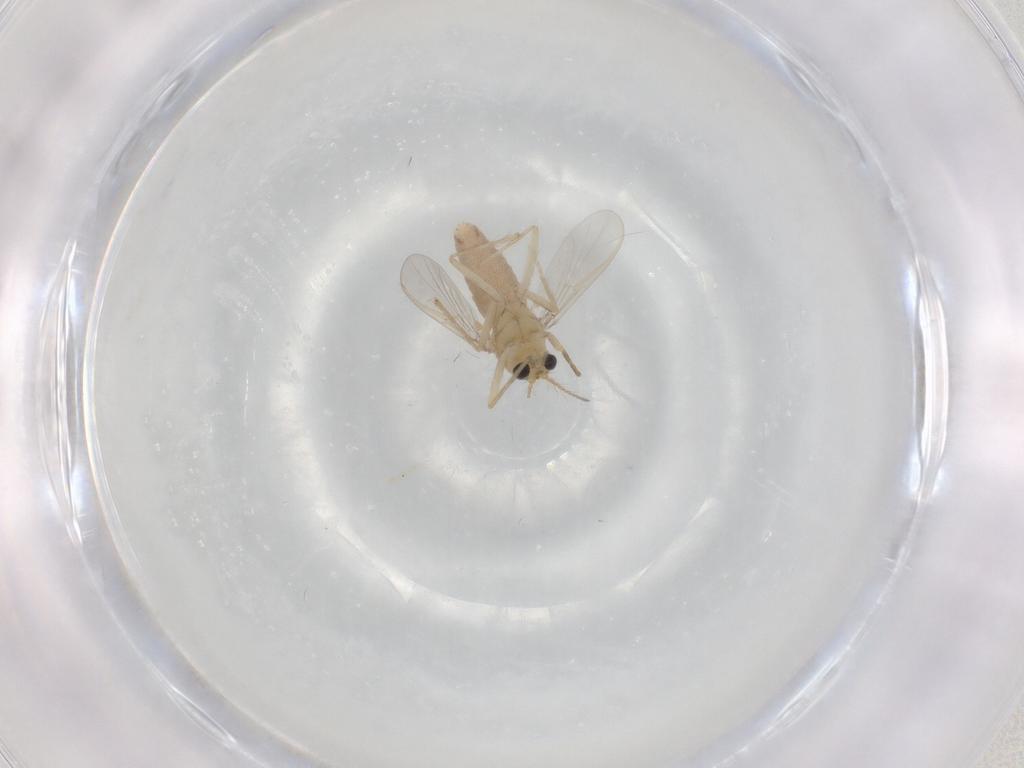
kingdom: Animalia
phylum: Arthropoda
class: Insecta
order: Diptera
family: Chironomidae
